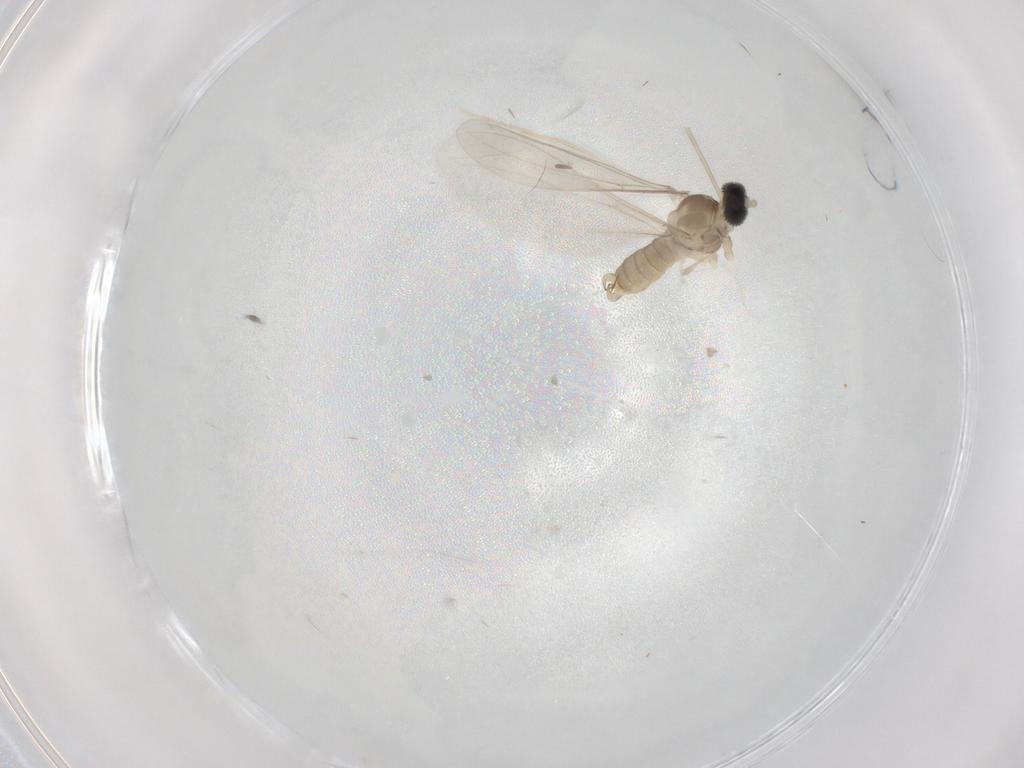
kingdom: Animalia
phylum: Arthropoda
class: Insecta
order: Diptera
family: Cecidomyiidae
